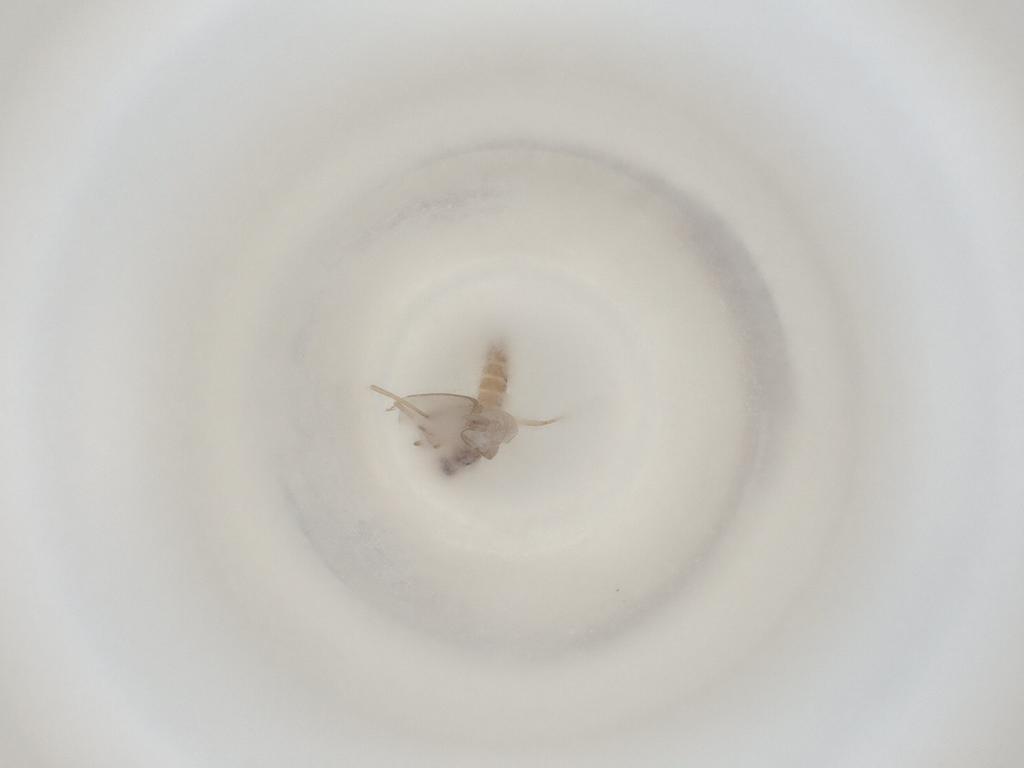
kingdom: Animalia
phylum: Arthropoda
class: Insecta
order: Diptera
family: Cecidomyiidae
